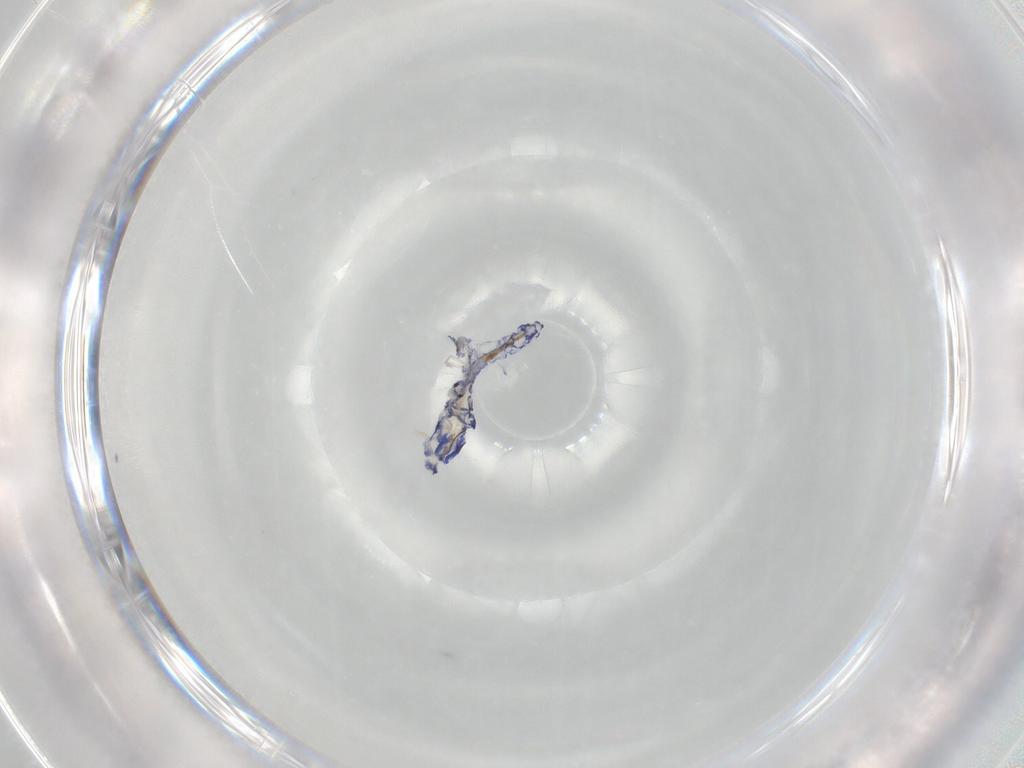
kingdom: Animalia
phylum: Arthropoda
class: Collembola
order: Entomobryomorpha
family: Entomobryidae
